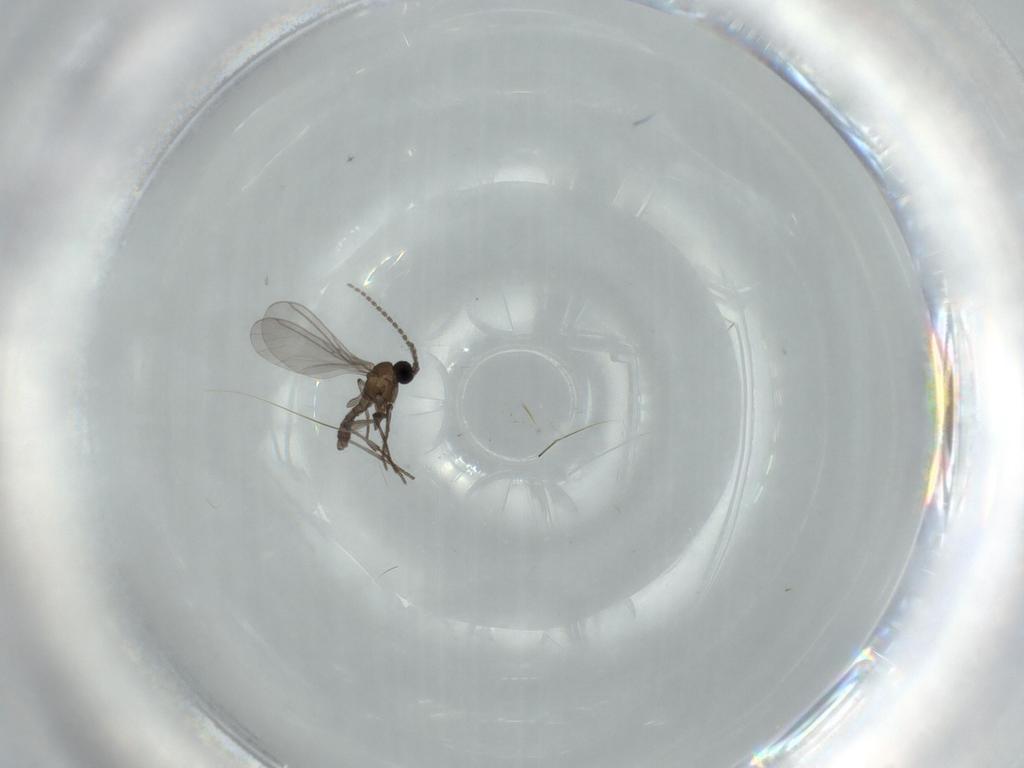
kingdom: Animalia
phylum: Arthropoda
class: Insecta
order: Diptera
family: Sciaridae
